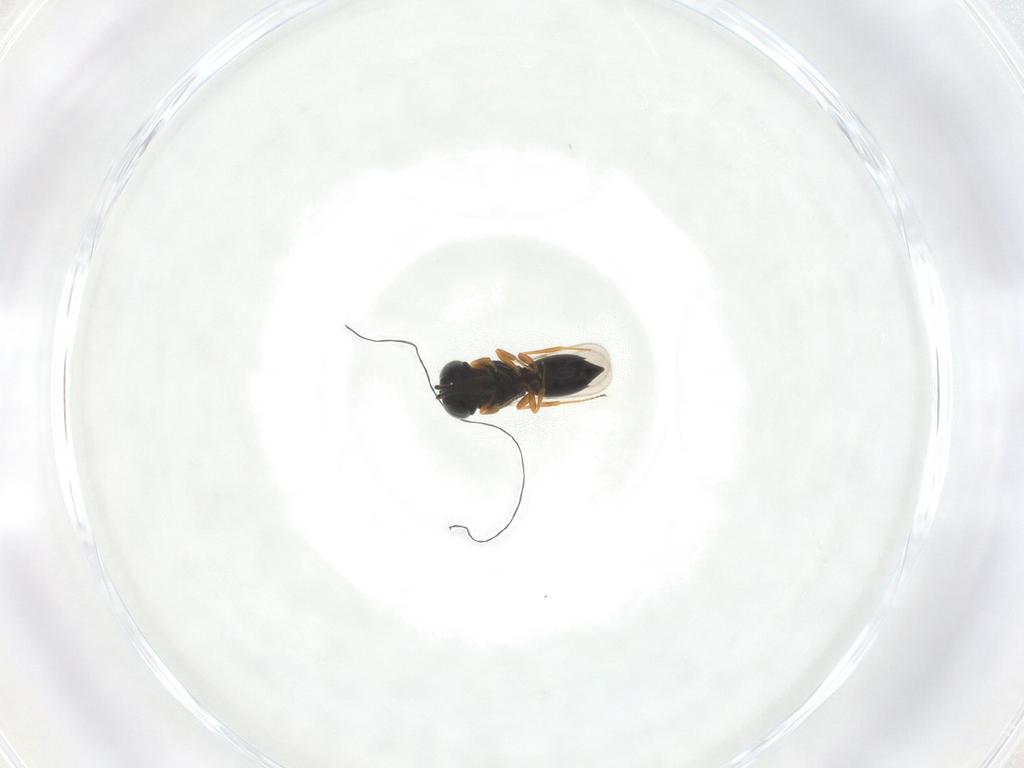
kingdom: Animalia
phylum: Arthropoda
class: Insecta
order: Hymenoptera
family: Scelionidae
